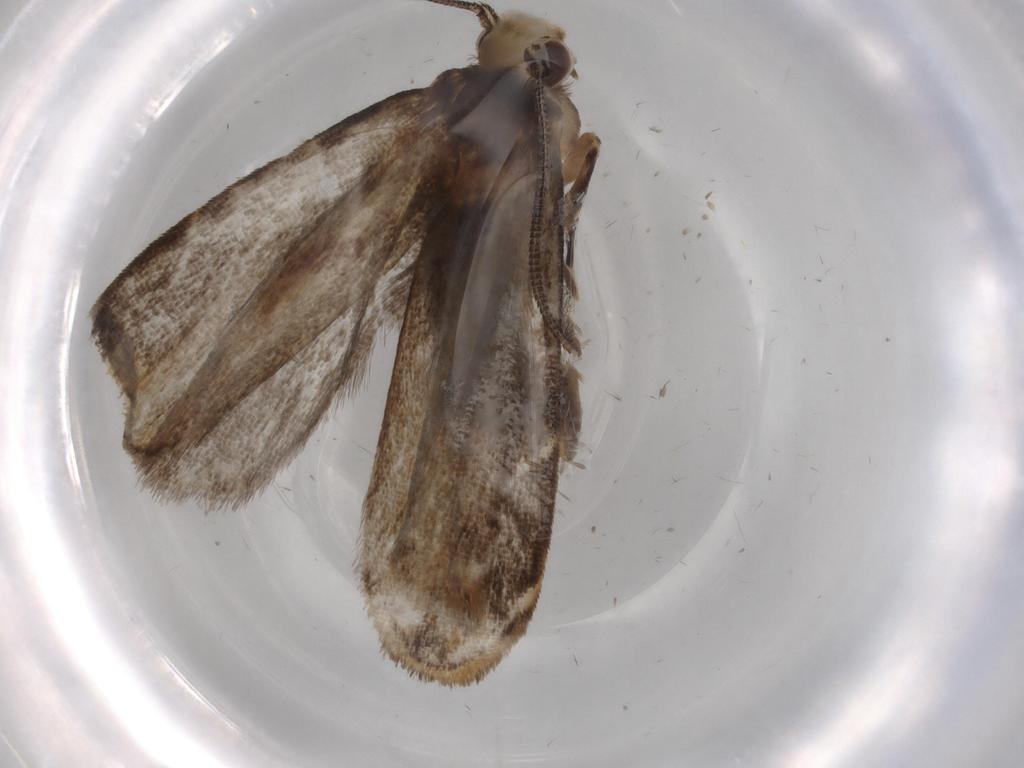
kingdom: Animalia
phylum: Arthropoda
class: Insecta
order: Lepidoptera
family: Dryadaulidae
